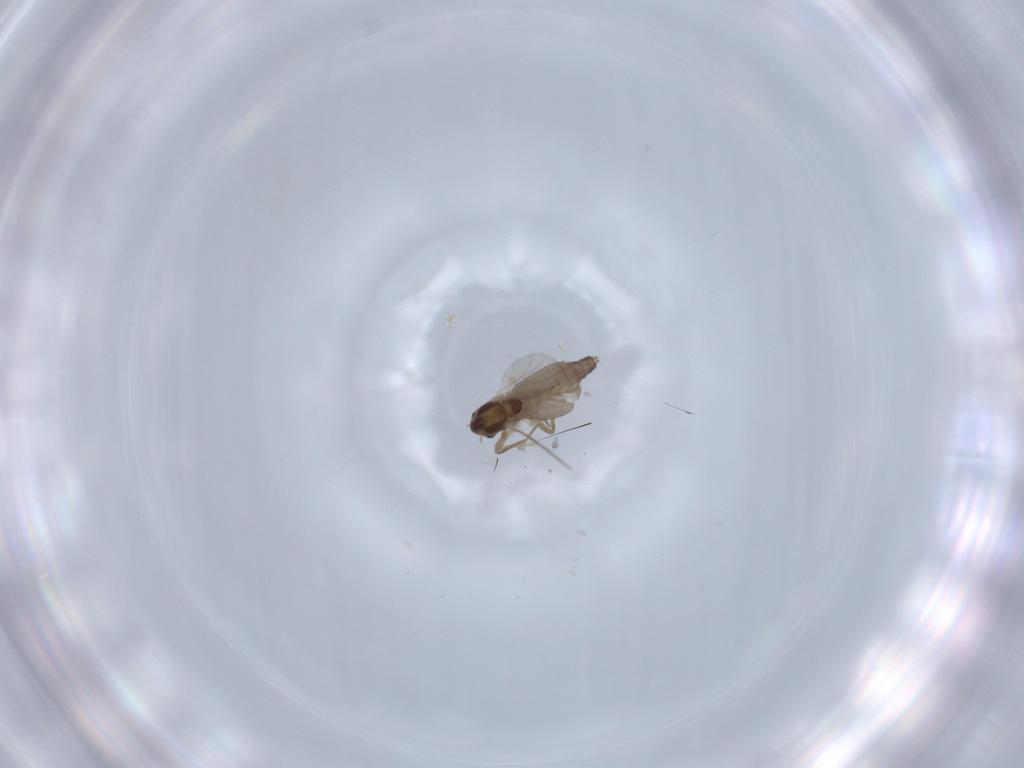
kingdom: Animalia
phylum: Arthropoda
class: Insecta
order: Diptera
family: Chironomidae
